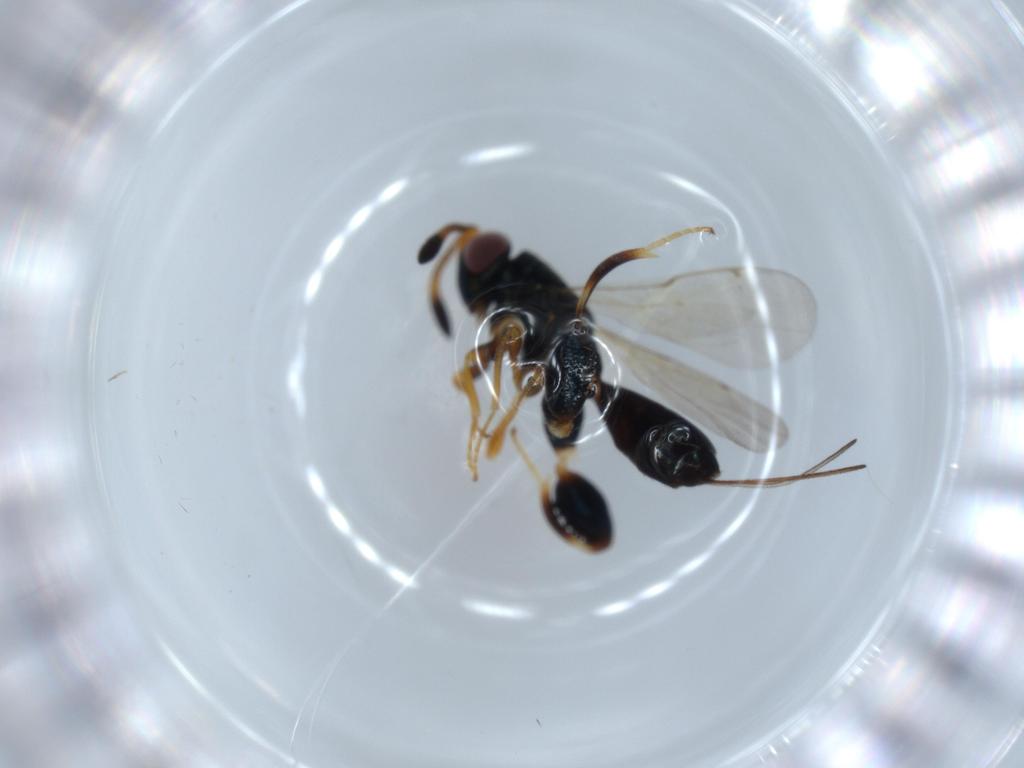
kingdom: Animalia
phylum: Arthropoda
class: Insecta
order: Hymenoptera
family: Torymidae
